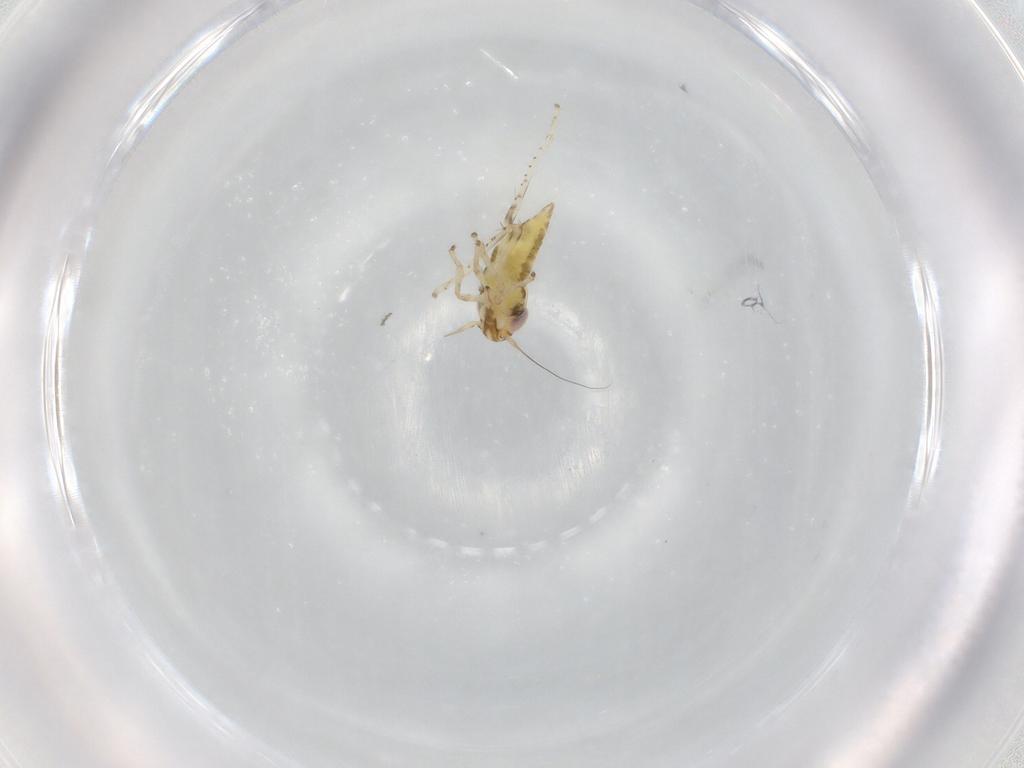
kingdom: Animalia
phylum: Arthropoda
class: Insecta
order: Hemiptera
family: Cicadellidae
